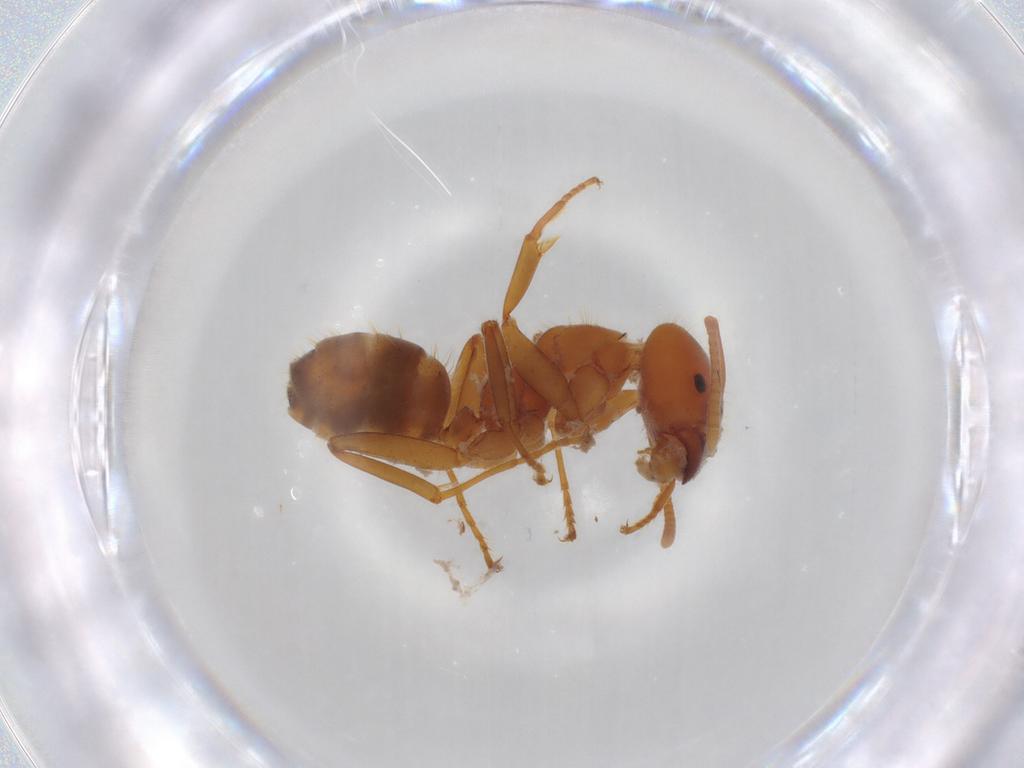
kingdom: Animalia
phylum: Arthropoda
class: Insecta
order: Hymenoptera
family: Formicidae
